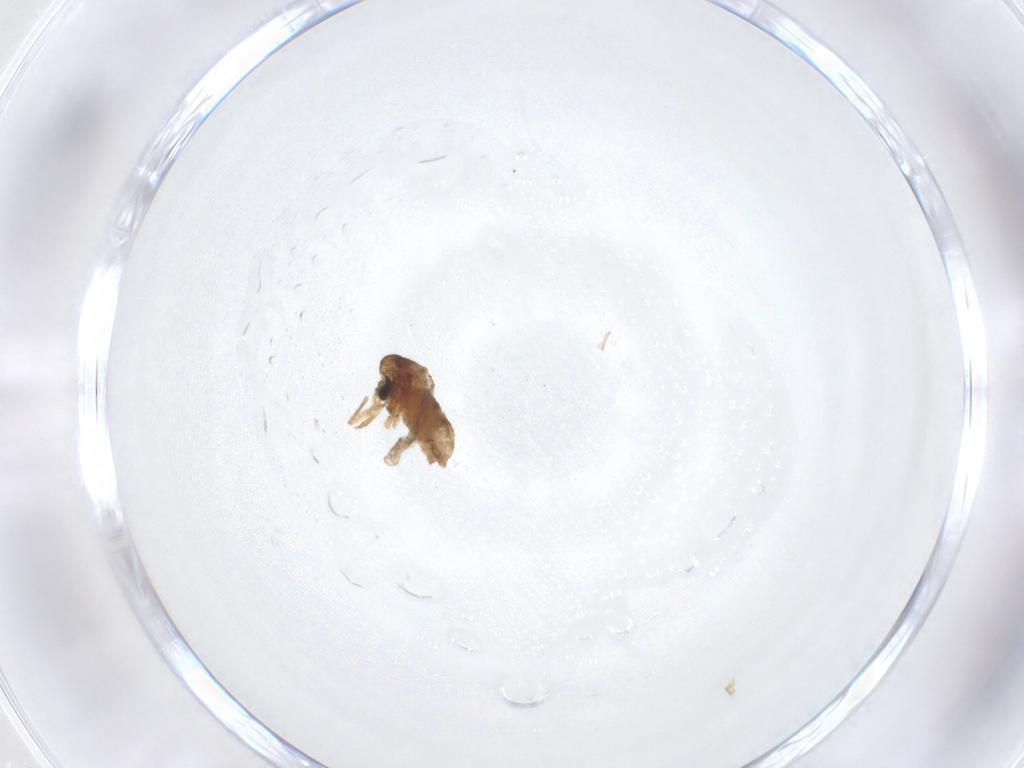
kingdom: Animalia
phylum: Arthropoda
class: Insecta
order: Diptera
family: Chironomidae
